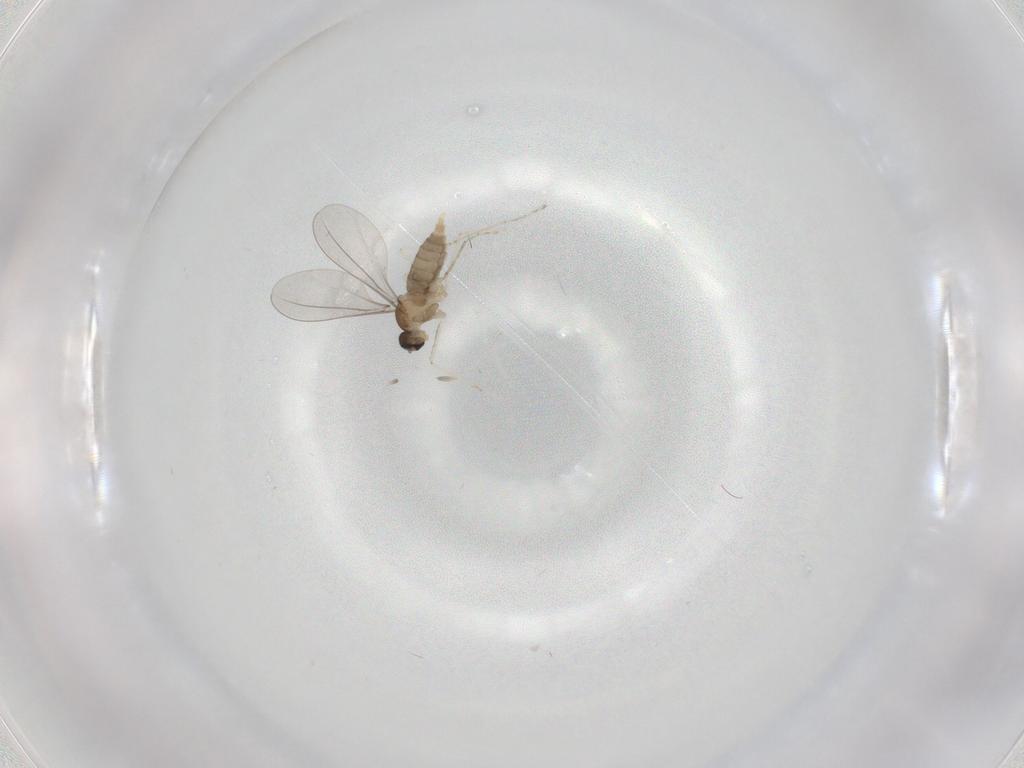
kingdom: Animalia
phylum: Arthropoda
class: Insecta
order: Diptera
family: Cecidomyiidae
